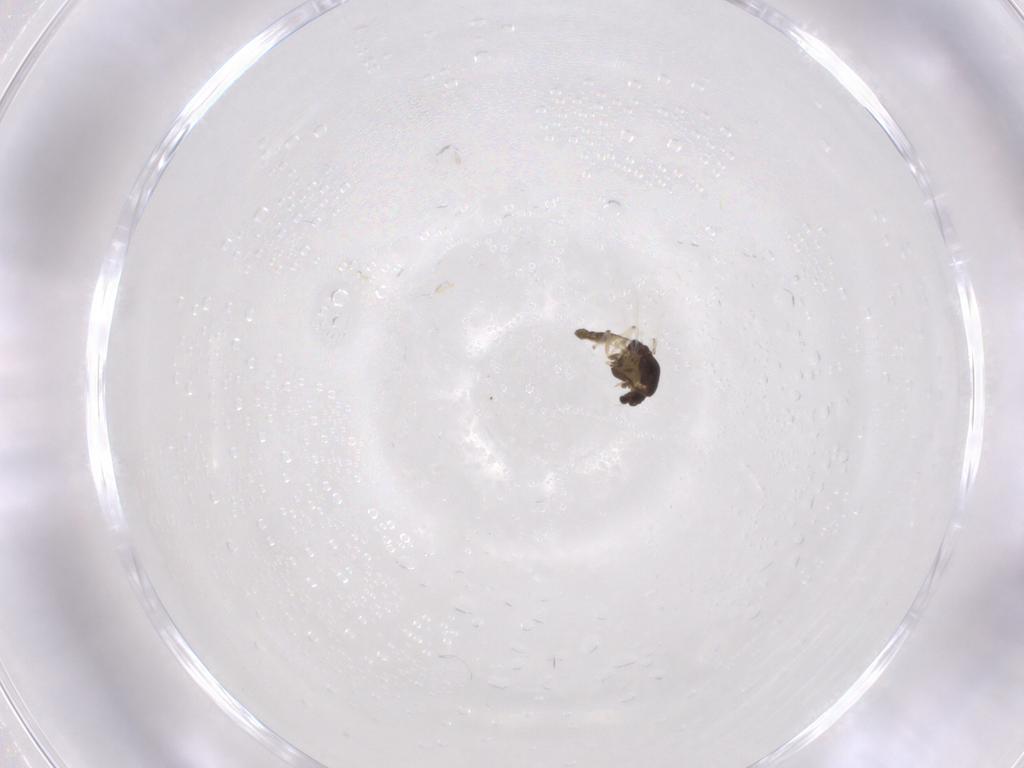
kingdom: Animalia
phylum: Arthropoda
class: Insecta
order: Diptera
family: Chironomidae
